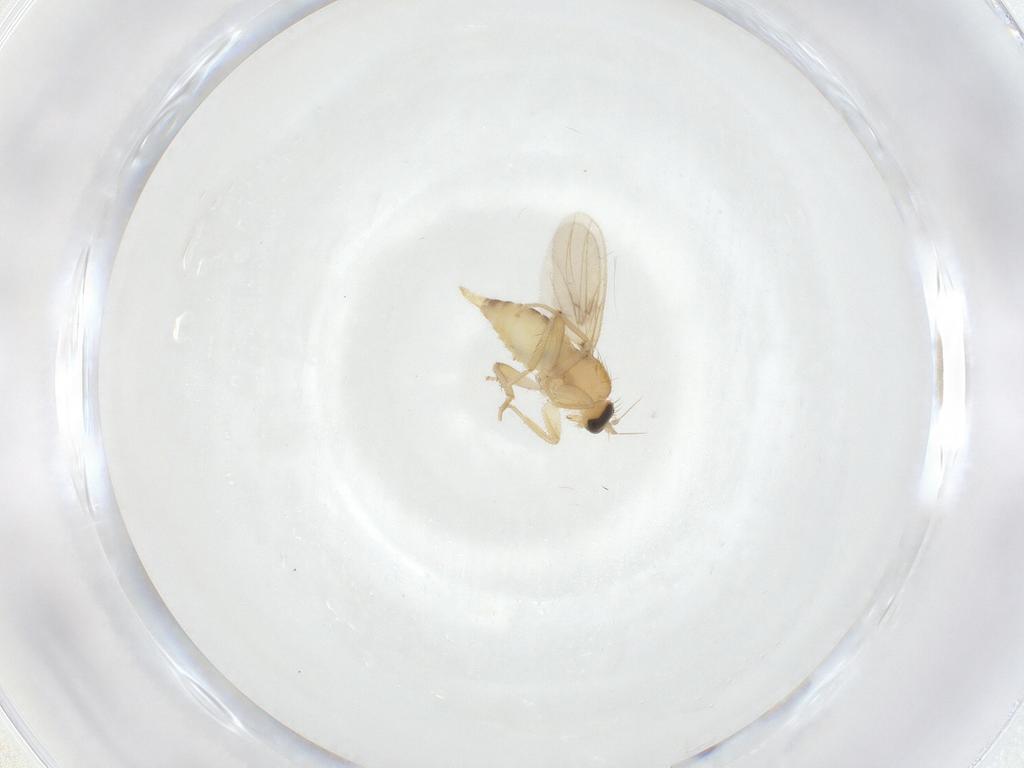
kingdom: Animalia
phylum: Arthropoda
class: Insecta
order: Diptera
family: Hybotidae
